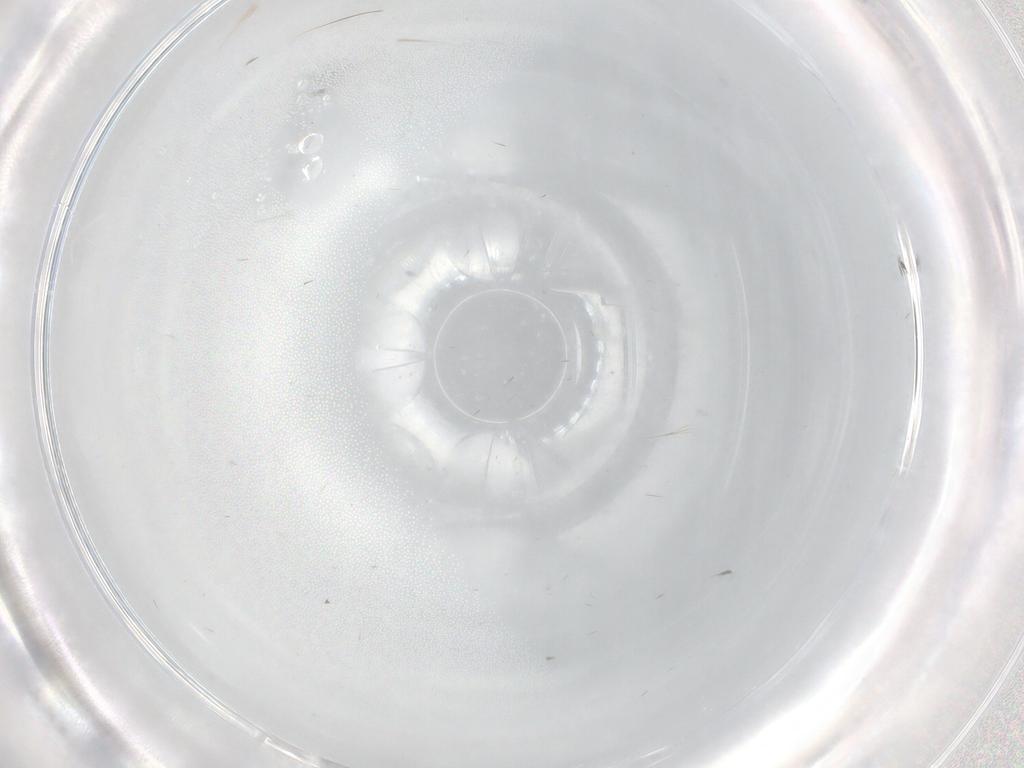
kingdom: Animalia
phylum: Arthropoda
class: Insecta
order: Diptera
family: Cecidomyiidae
